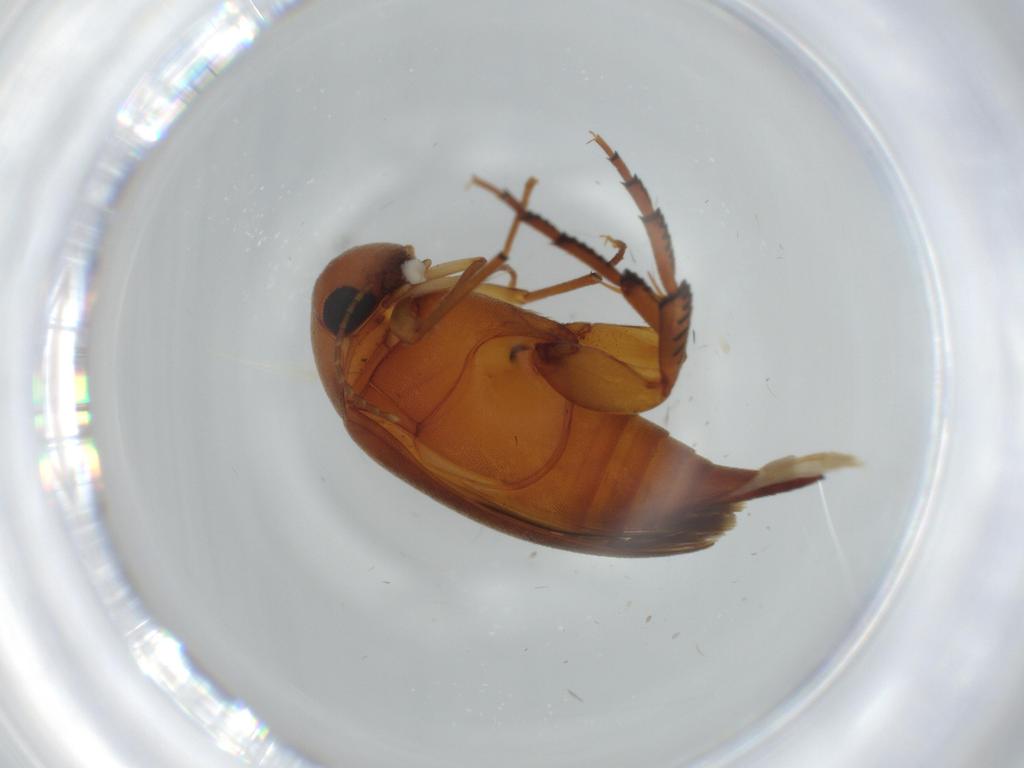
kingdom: Animalia
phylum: Arthropoda
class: Insecta
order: Coleoptera
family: Mordellidae
